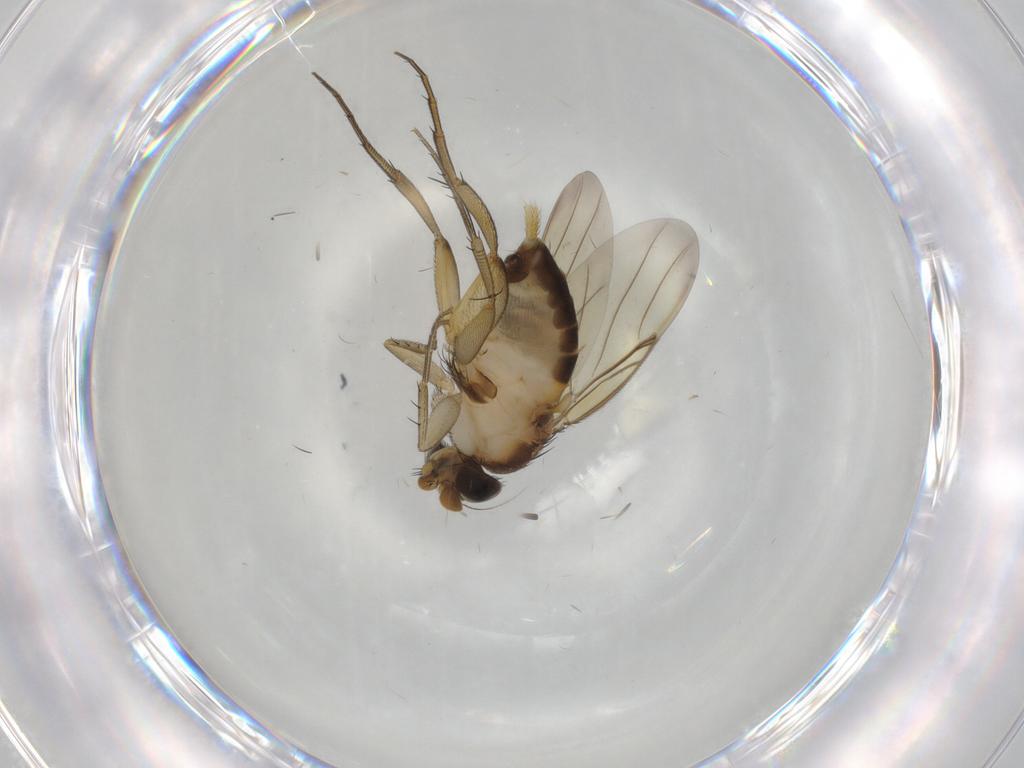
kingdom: Animalia
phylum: Arthropoda
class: Insecta
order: Diptera
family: Phoridae
